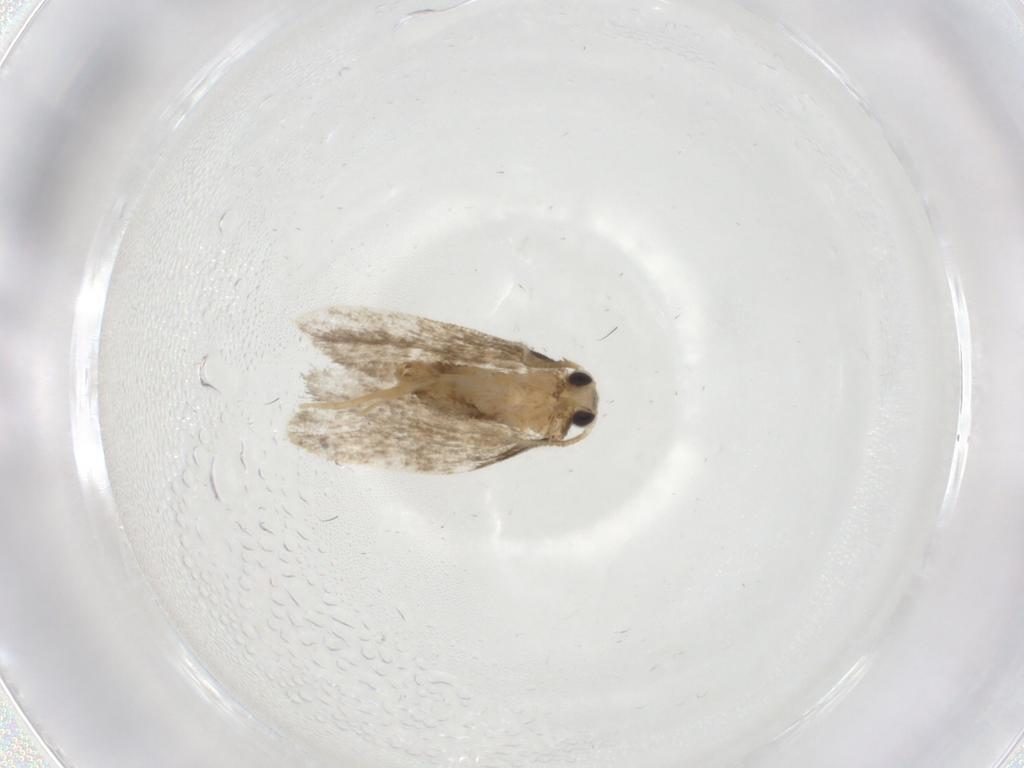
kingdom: Animalia
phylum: Arthropoda
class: Insecta
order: Lepidoptera
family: Psychidae
